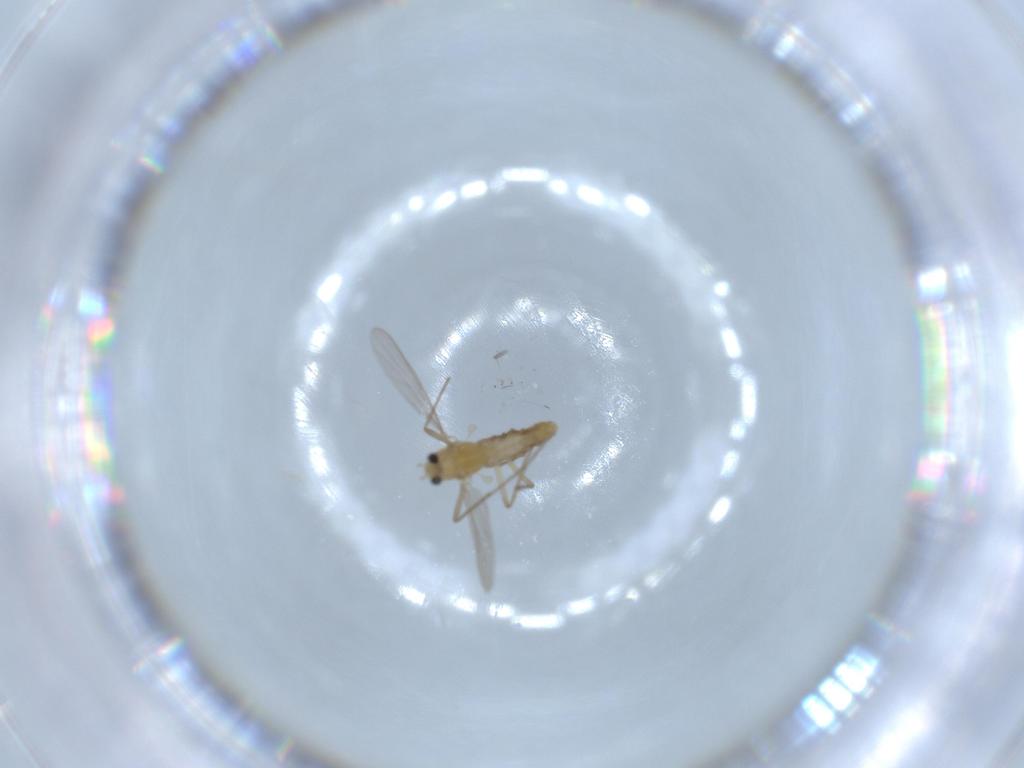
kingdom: Animalia
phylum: Arthropoda
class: Insecta
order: Diptera
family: Chironomidae
